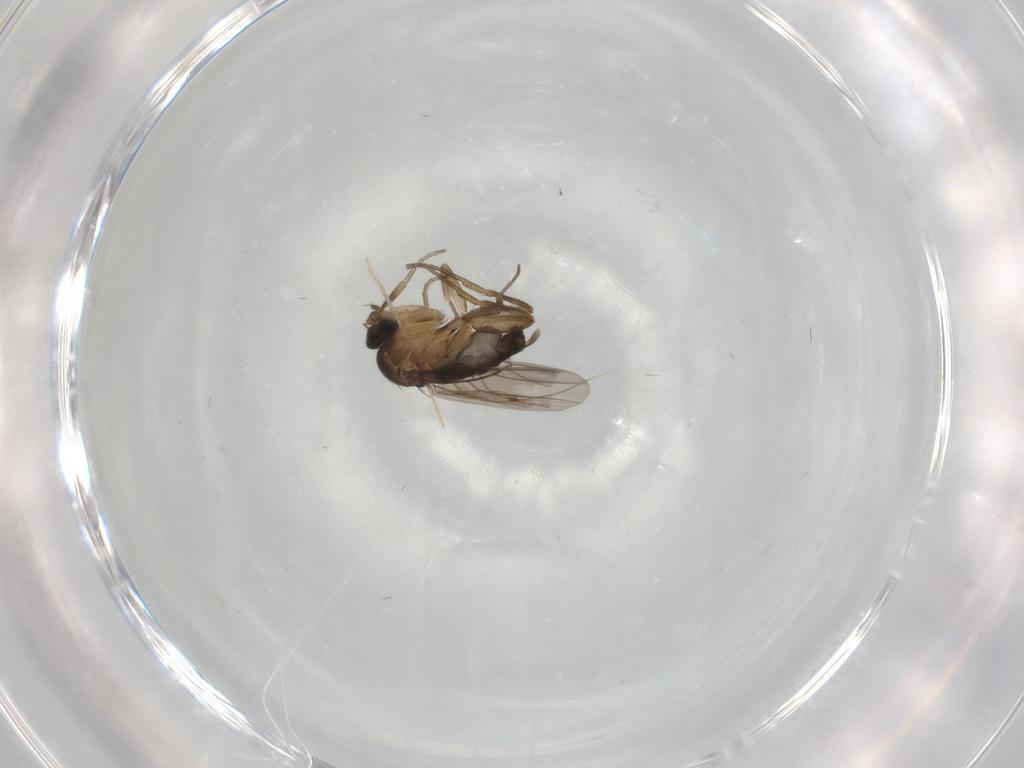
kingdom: Animalia
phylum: Arthropoda
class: Insecta
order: Diptera
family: Phoridae
